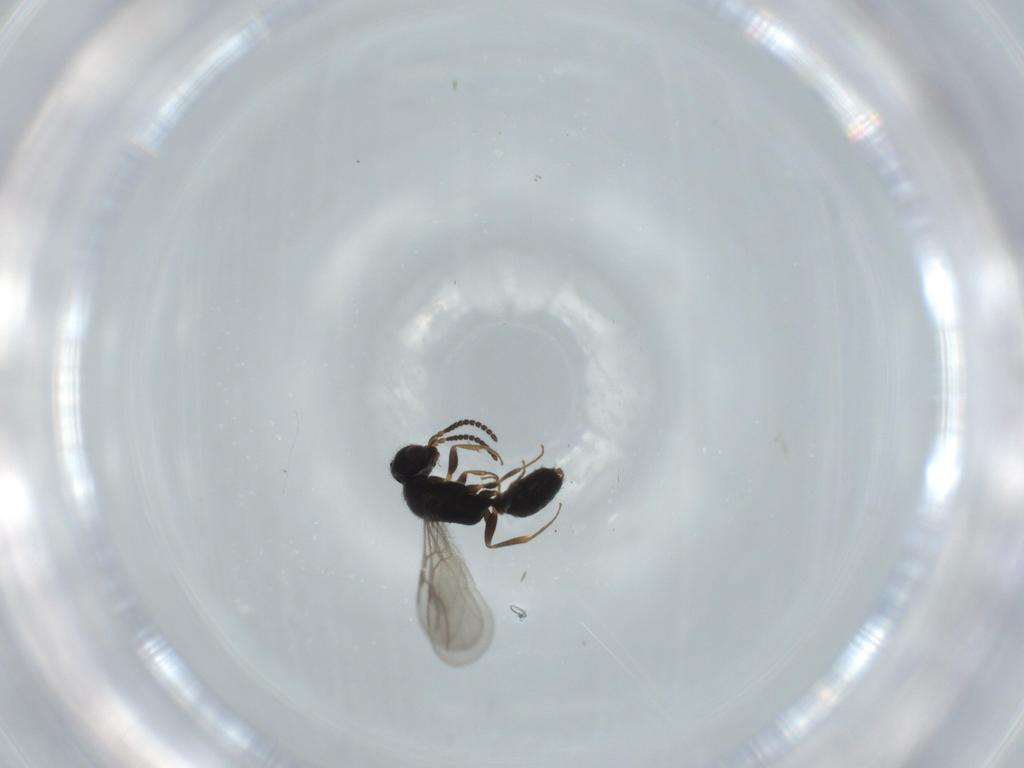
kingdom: Animalia
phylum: Arthropoda
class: Insecta
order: Hymenoptera
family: Bethylidae
